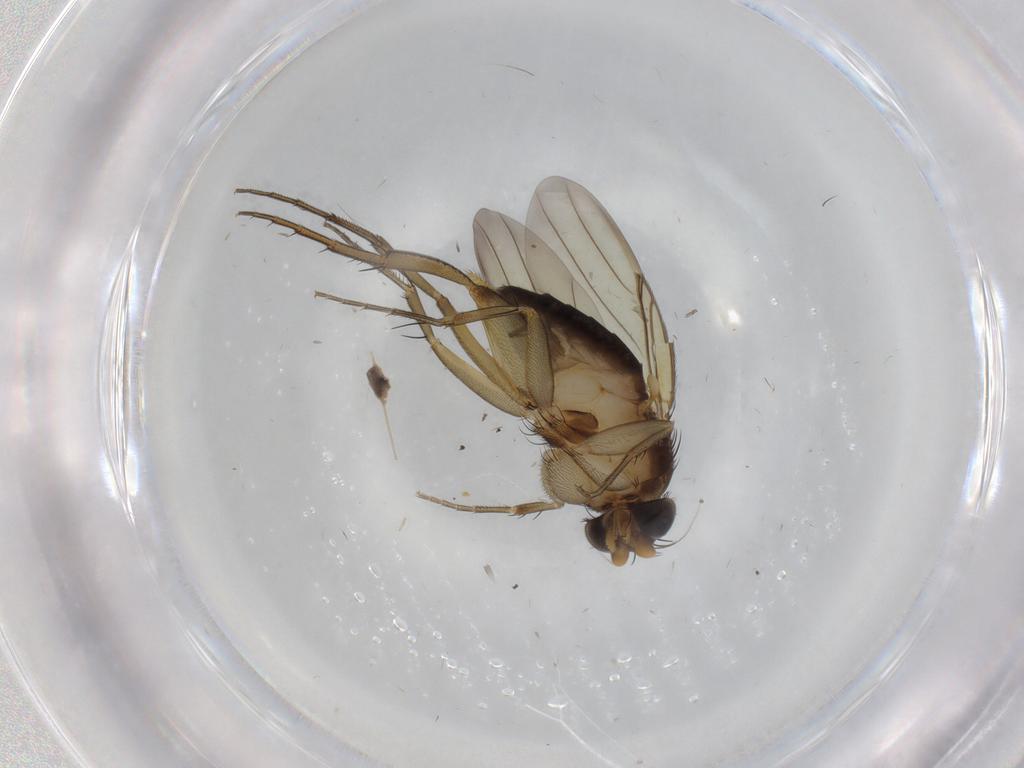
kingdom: Animalia
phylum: Arthropoda
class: Insecta
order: Diptera
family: Phoridae
